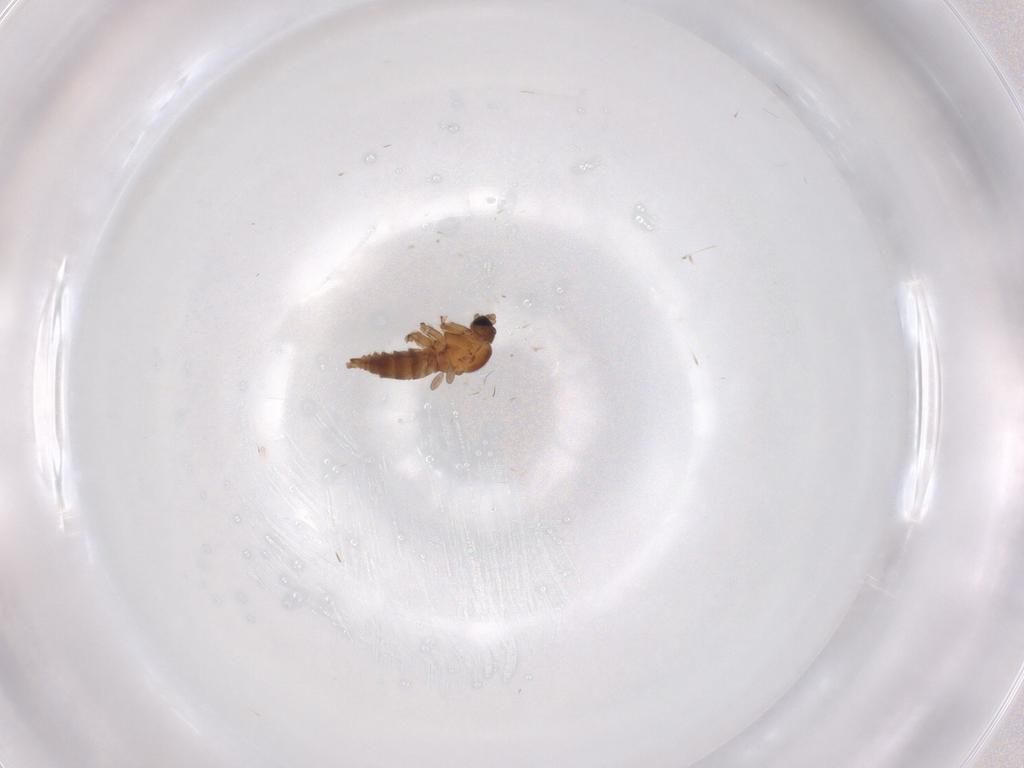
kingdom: Animalia
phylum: Arthropoda
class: Insecta
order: Diptera
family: Sciaridae
